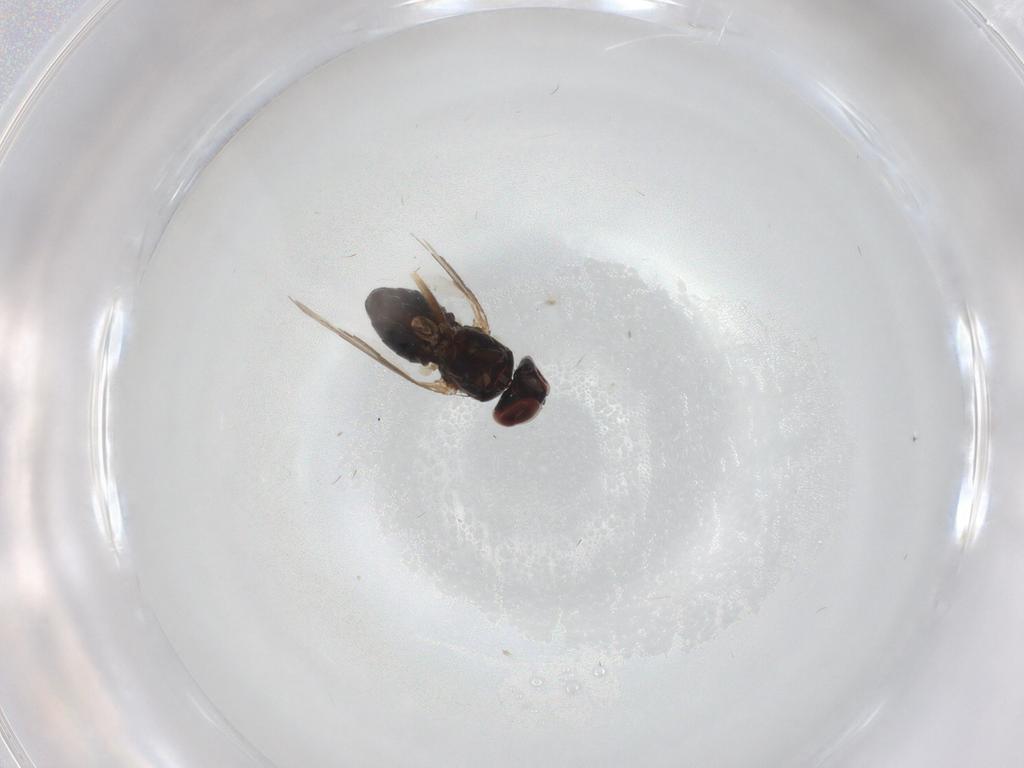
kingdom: Animalia
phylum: Arthropoda
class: Insecta
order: Diptera
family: Dolichopodidae
